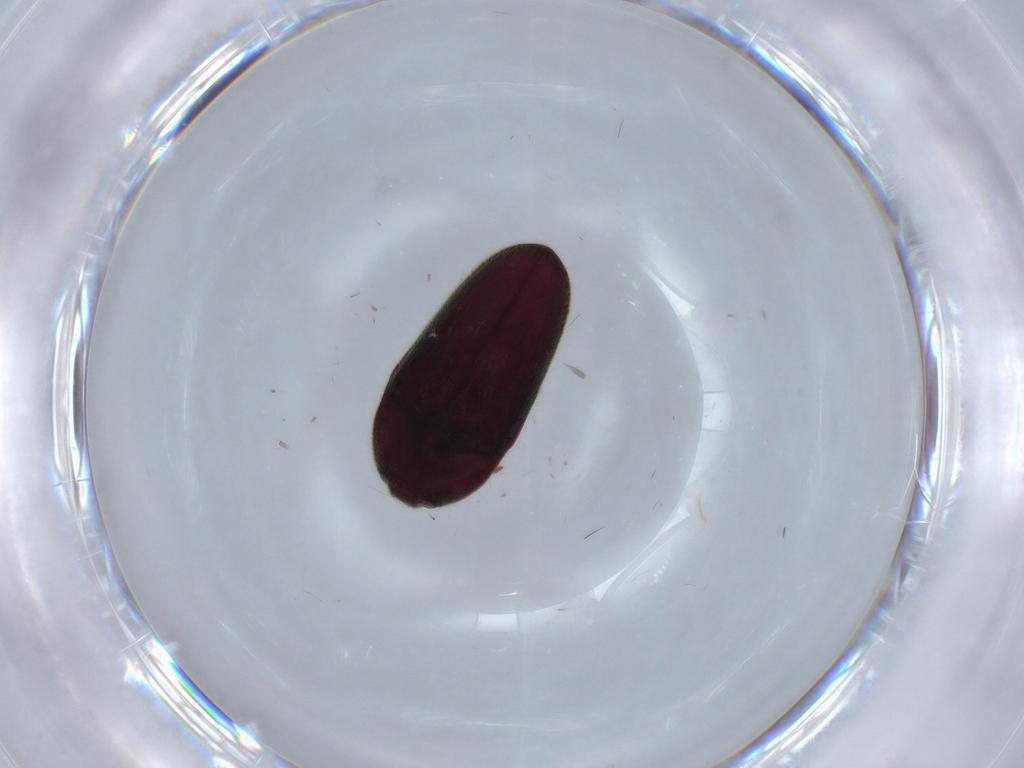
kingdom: Animalia
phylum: Arthropoda
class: Insecta
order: Coleoptera
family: Throscidae
